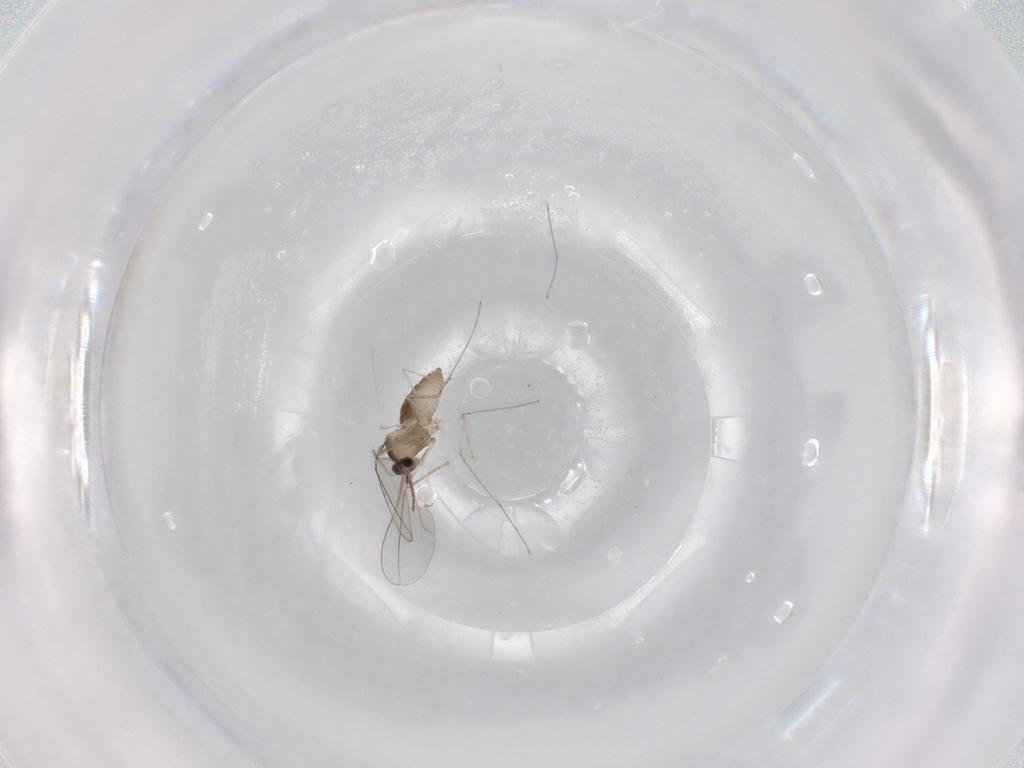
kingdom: Animalia
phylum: Arthropoda
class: Insecta
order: Diptera
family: Cecidomyiidae
